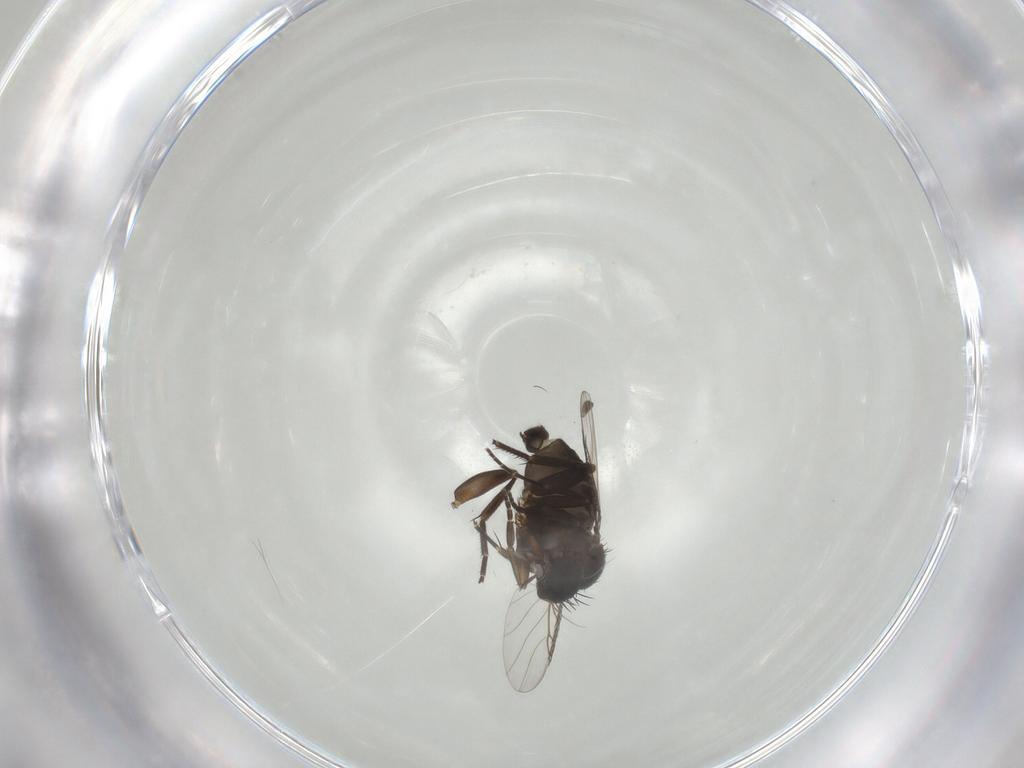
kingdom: Animalia
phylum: Arthropoda
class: Insecta
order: Diptera
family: Phoridae
